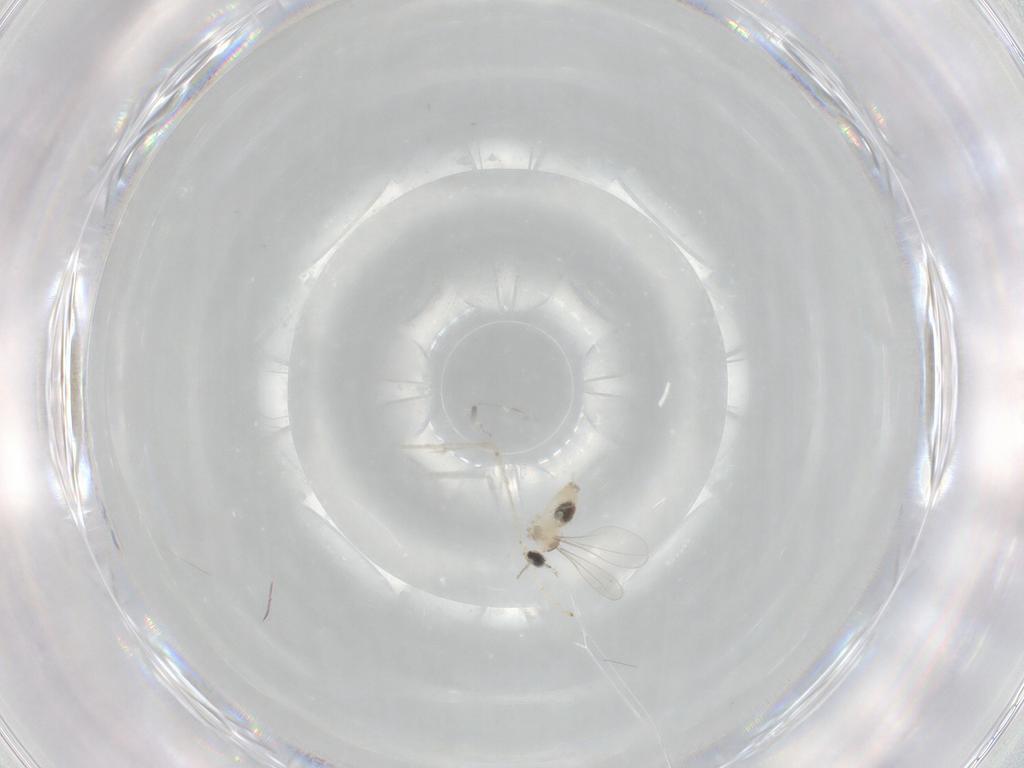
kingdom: Animalia
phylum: Arthropoda
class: Insecta
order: Diptera
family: Cecidomyiidae
